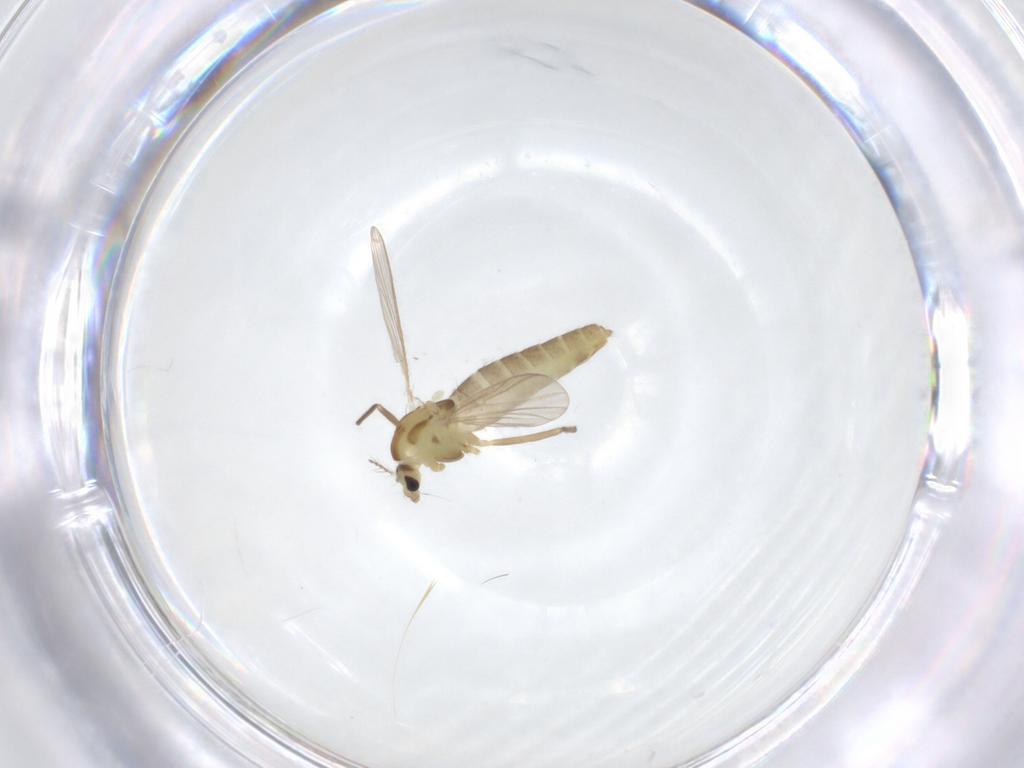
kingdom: Animalia
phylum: Arthropoda
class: Insecta
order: Diptera
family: Chironomidae
